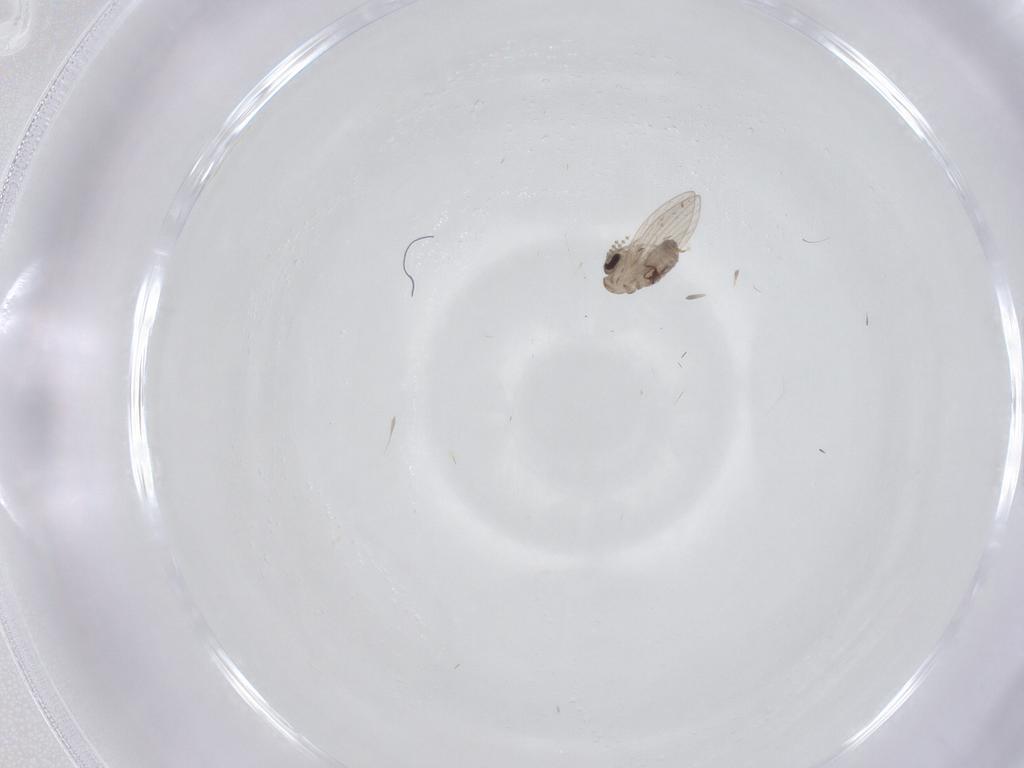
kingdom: Animalia
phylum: Arthropoda
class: Insecta
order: Diptera
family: Psychodidae
